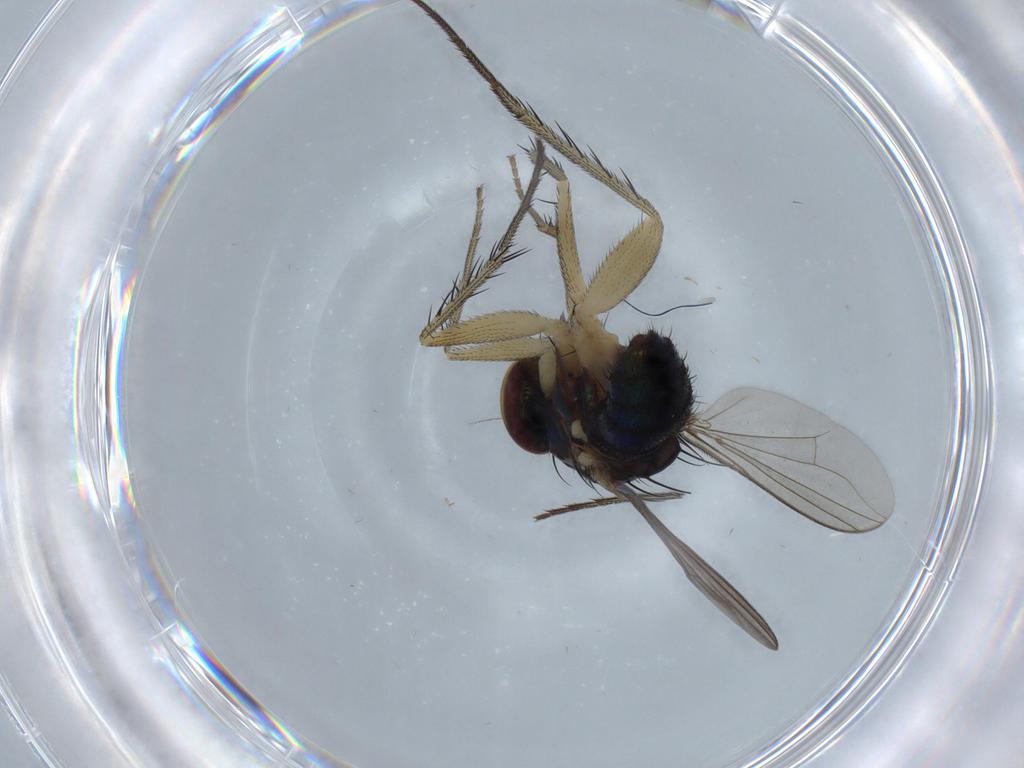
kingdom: Animalia
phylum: Arthropoda
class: Insecta
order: Diptera
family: Dolichopodidae
